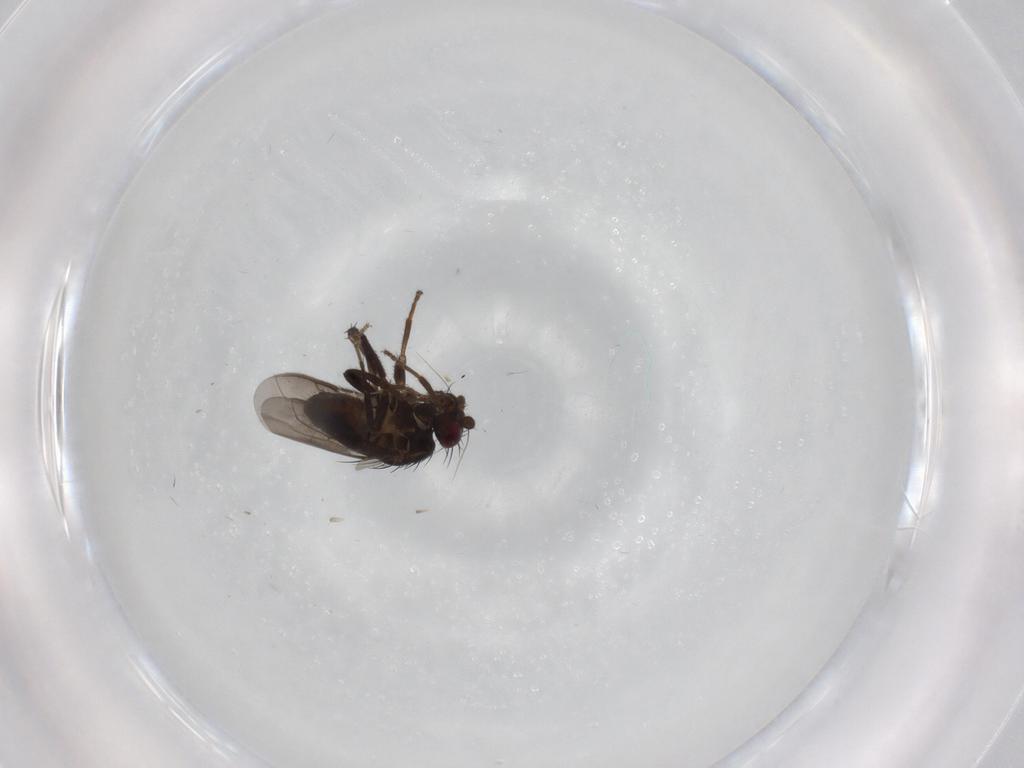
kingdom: Animalia
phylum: Arthropoda
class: Insecta
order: Diptera
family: Sphaeroceridae
